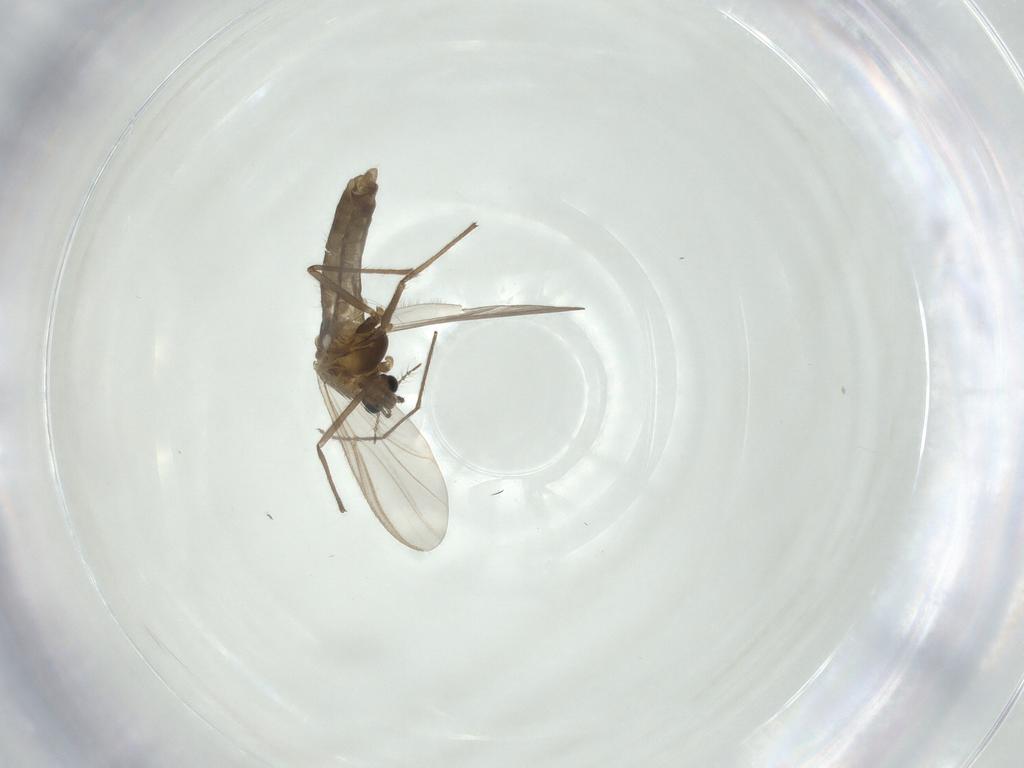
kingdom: Animalia
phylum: Arthropoda
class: Insecta
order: Diptera
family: Chironomidae
